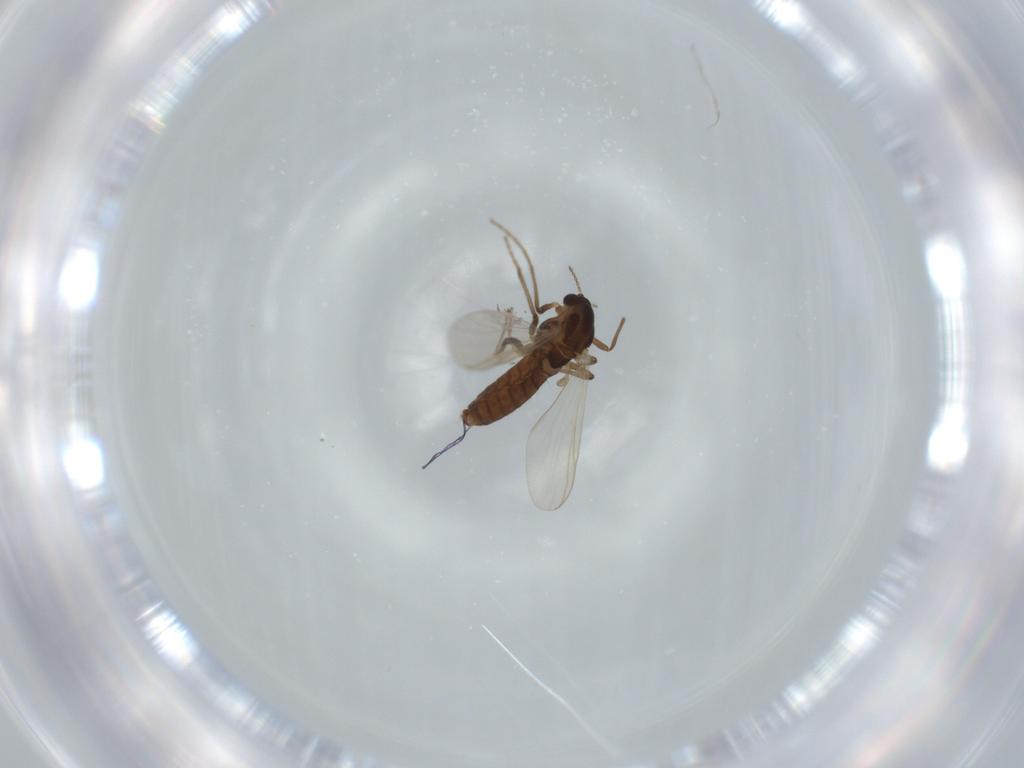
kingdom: Animalia
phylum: Arthropoda
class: Insecta
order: Diptera
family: Chironomidae
